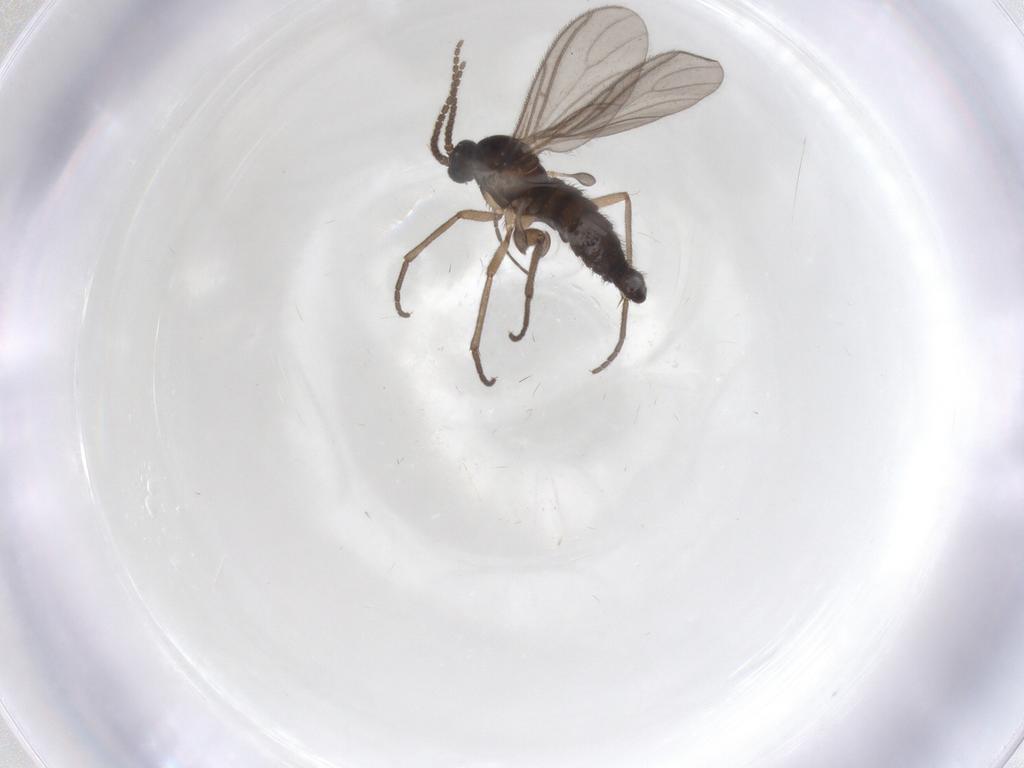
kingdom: Animalia
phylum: Arthropoda
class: Insecta
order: Diptera
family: Sciaridae
